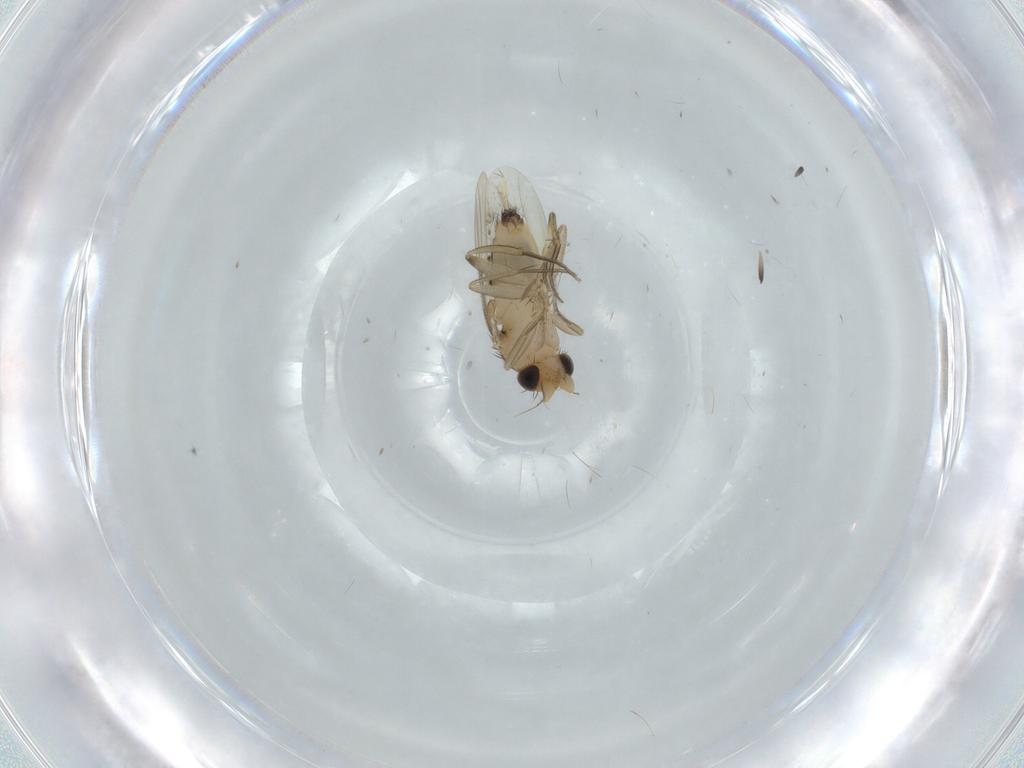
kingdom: Animalia
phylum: Arthropoda
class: Insecta
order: Diptera
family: Phoridae
